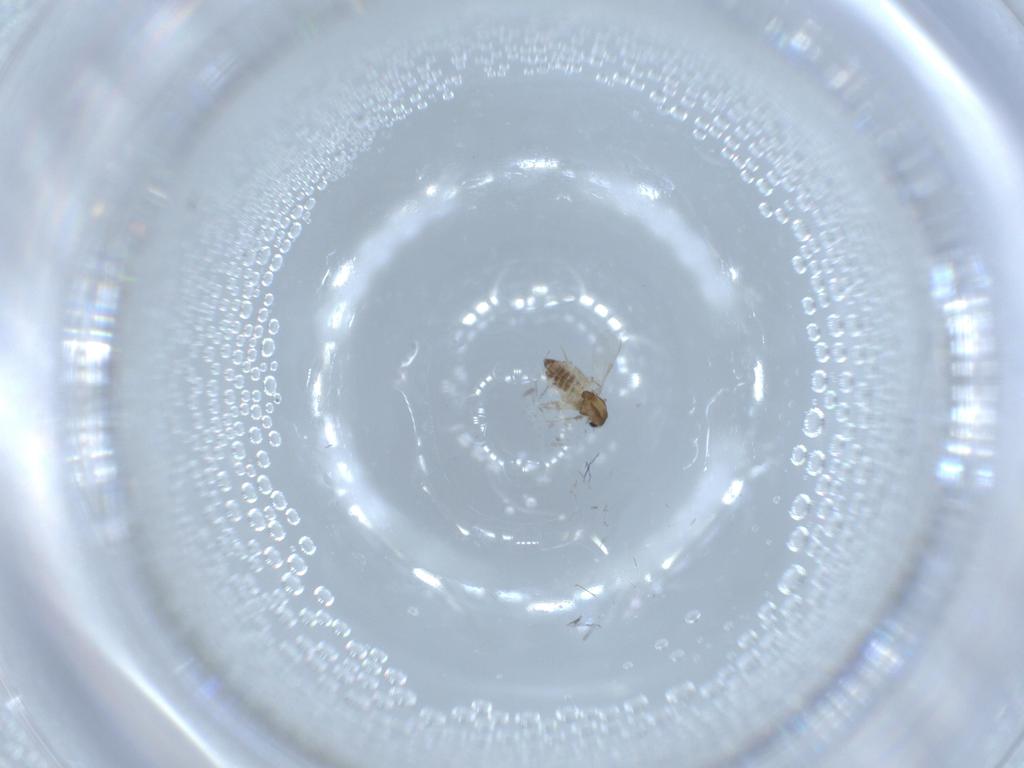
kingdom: Animalia
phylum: Arthropoda
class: Insecta
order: Diptera
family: Chironomidae
